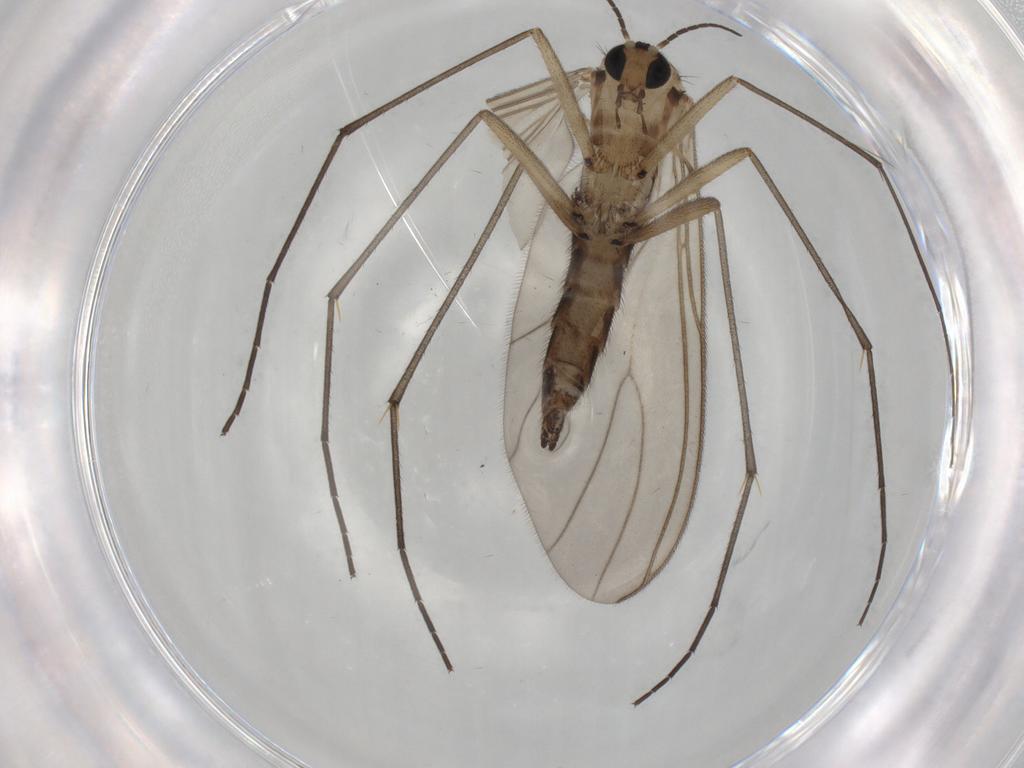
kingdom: Animalia
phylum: Arthropoda
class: Insecta
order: Diptera
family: Sciaridae
